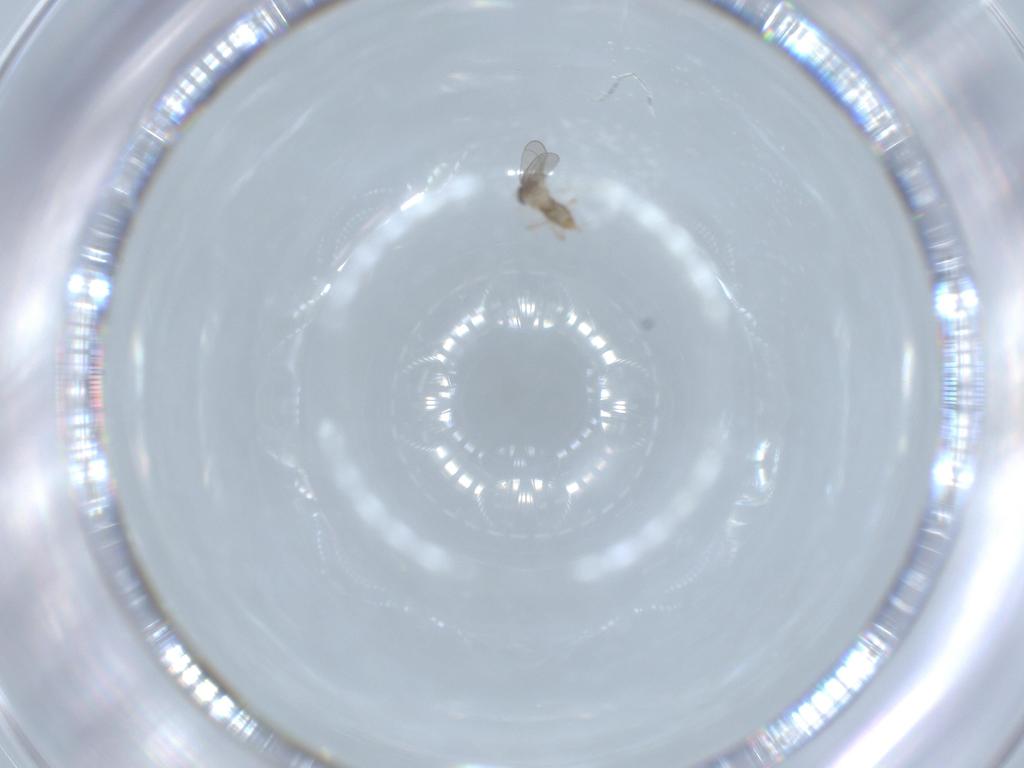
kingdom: Animalia
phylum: Arthropoda
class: Insecta
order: Diptera
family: Cecidomyiidae
